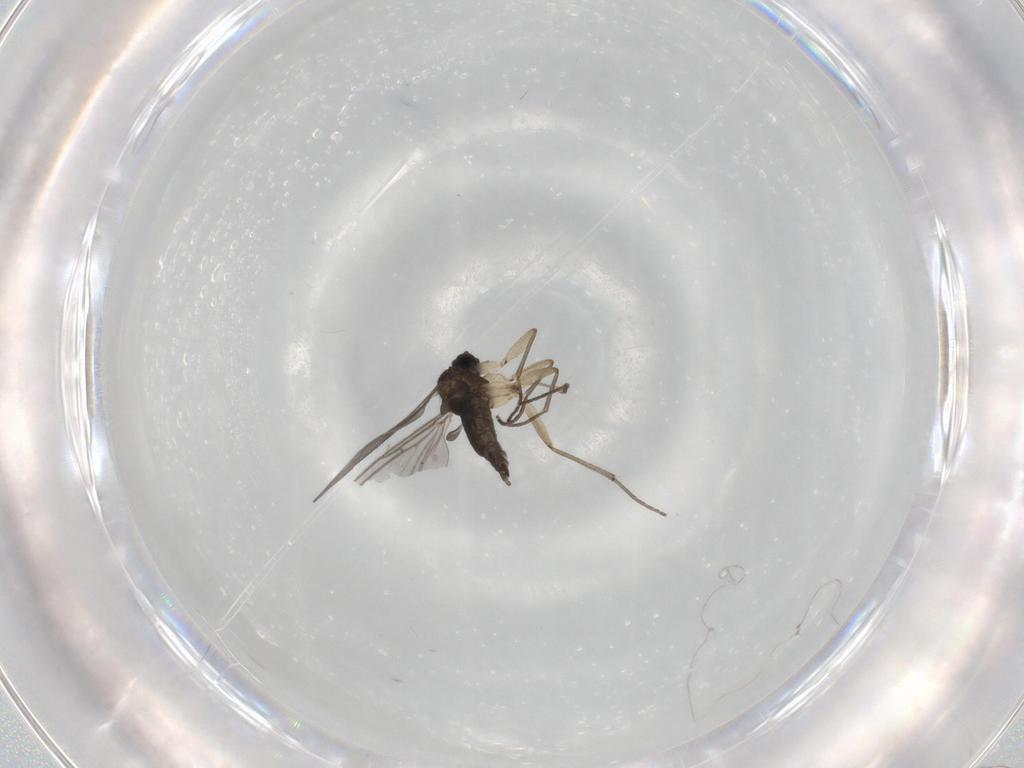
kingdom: Animalia
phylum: Arthropoda
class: Insecta
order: Diptera
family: Sciaridae
